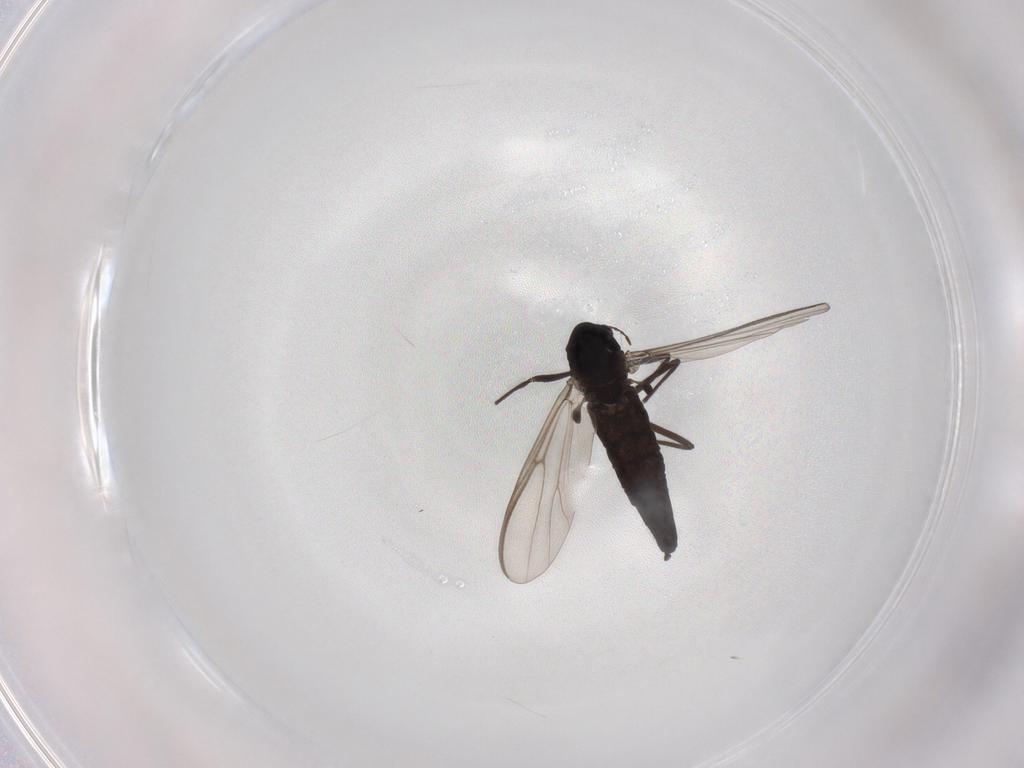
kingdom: Animalia
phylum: Arthropoda
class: Insecta
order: Diptera
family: Chironomidae
